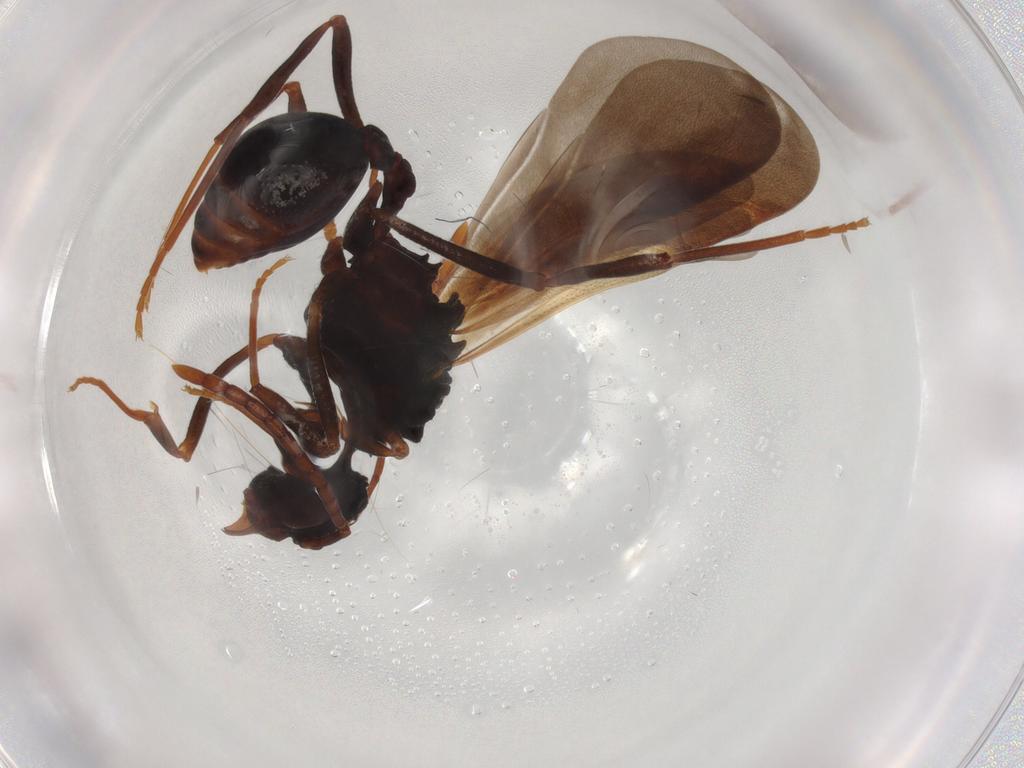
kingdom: Animalia
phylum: Arthropoda
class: Insecta
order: Hymenoptera
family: Formicidae
